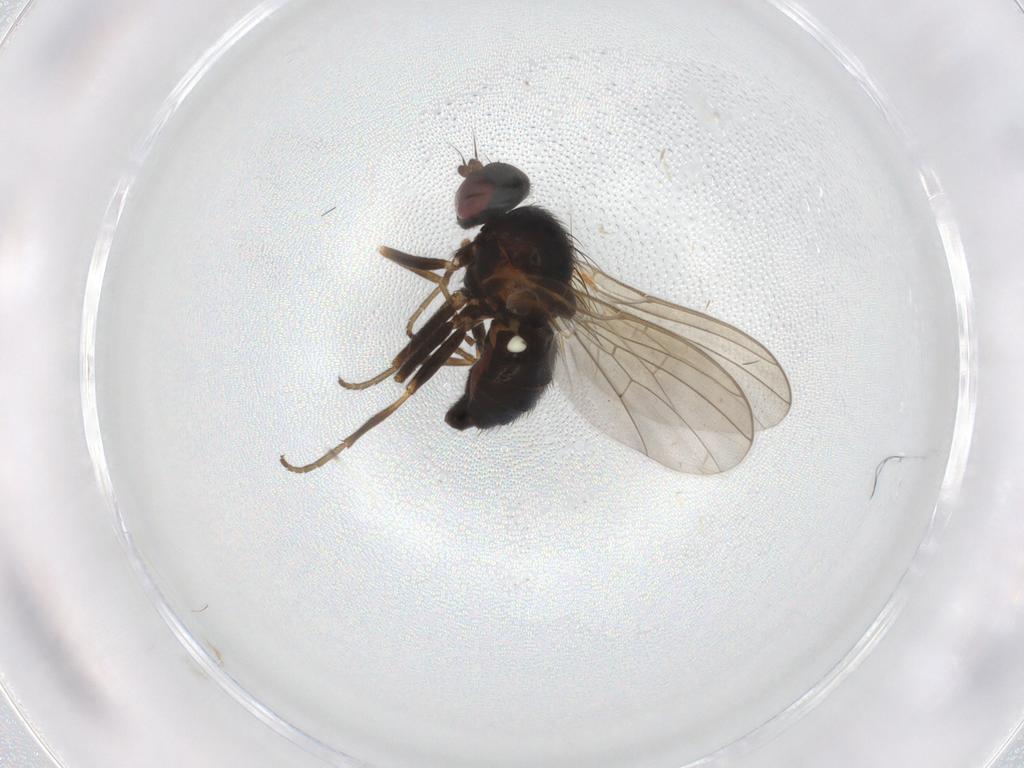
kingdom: Animalia
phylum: Arthropoda
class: Insecta
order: Diptera
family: Agromyzidae
